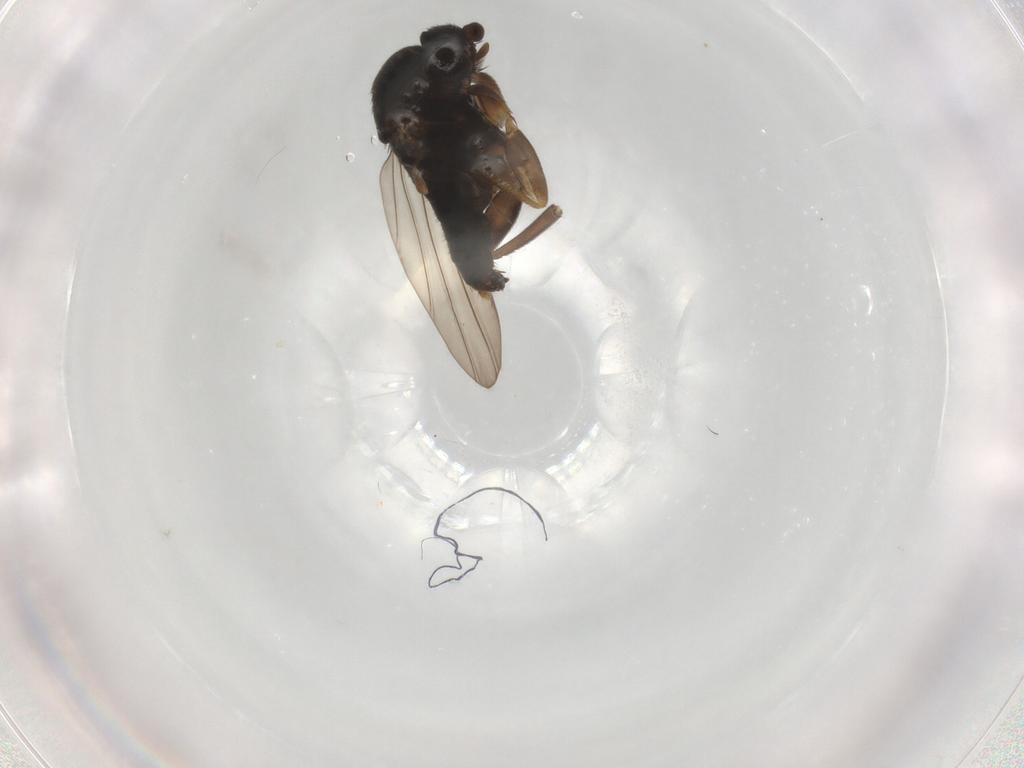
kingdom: Animalia
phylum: Arthropoda
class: Insecta
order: Diptera
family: Phoridae
